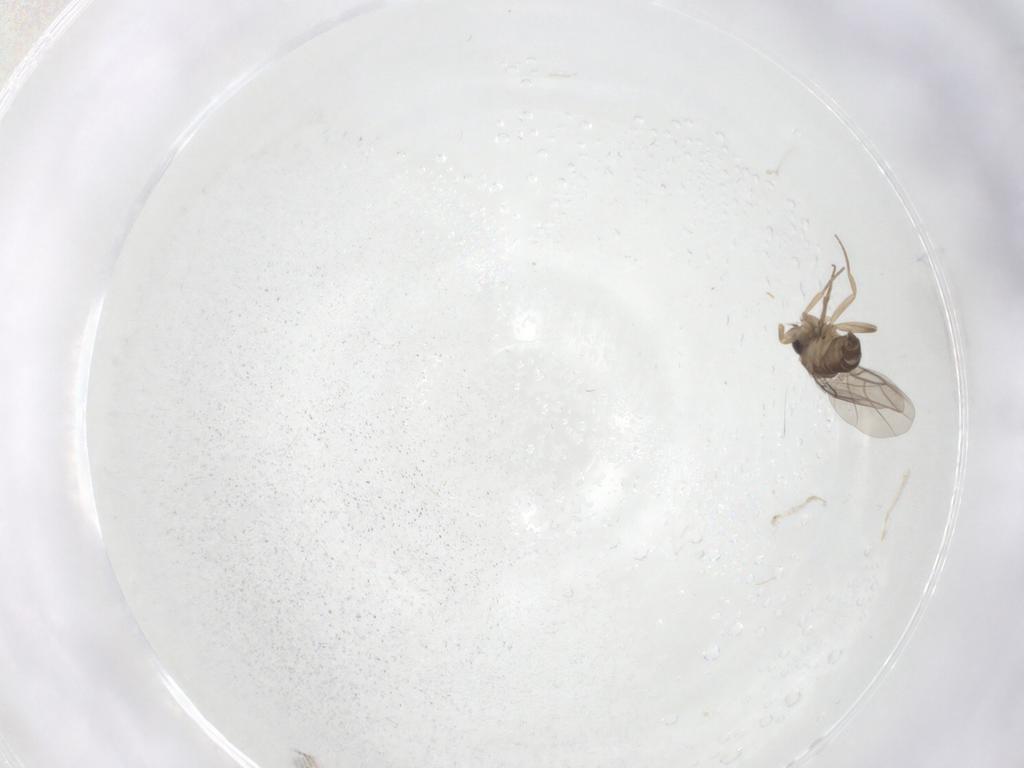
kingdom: Animalia
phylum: Arthropoda
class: Insecta
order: Diptera
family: Phoridae
